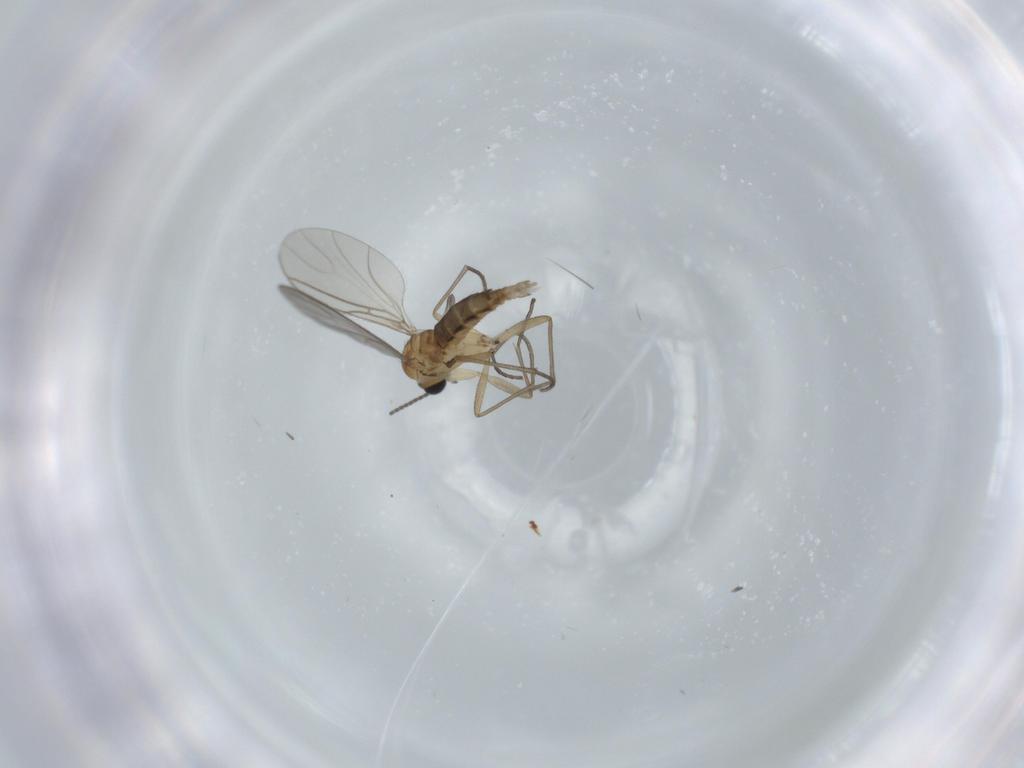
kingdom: Animalia
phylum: Arthropoda
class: Insecta
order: Diptera
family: Sciaridae
